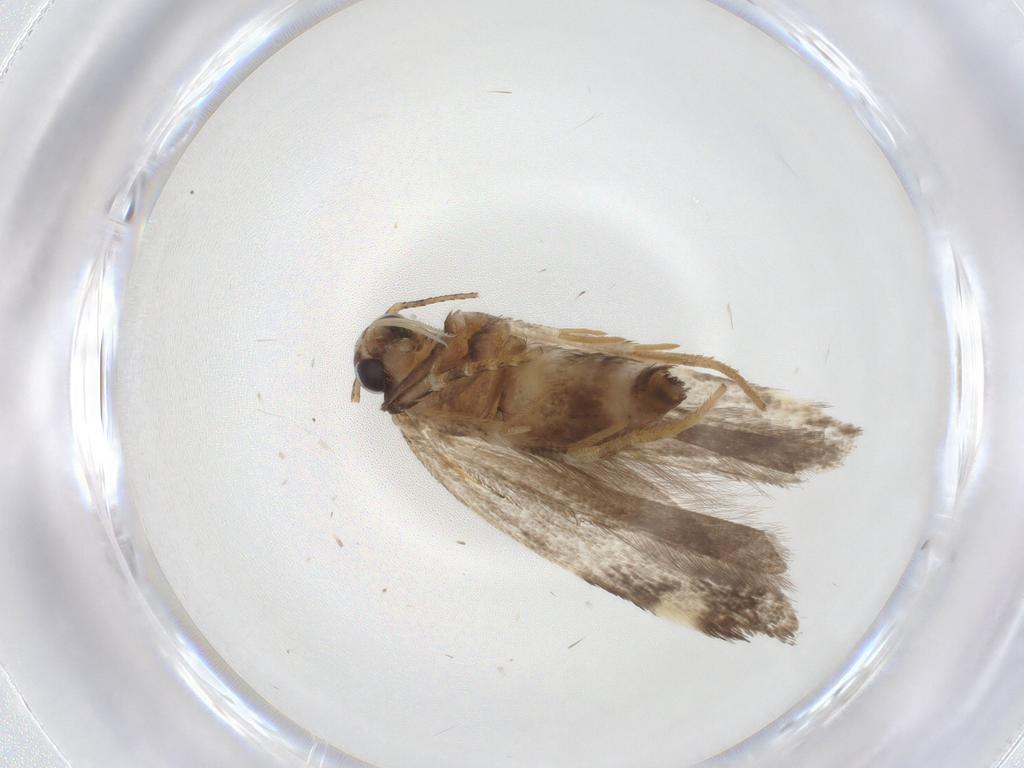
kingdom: Animalia
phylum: Arthropoda
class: Insecta
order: Lepidoptera
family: Gelechiidae
